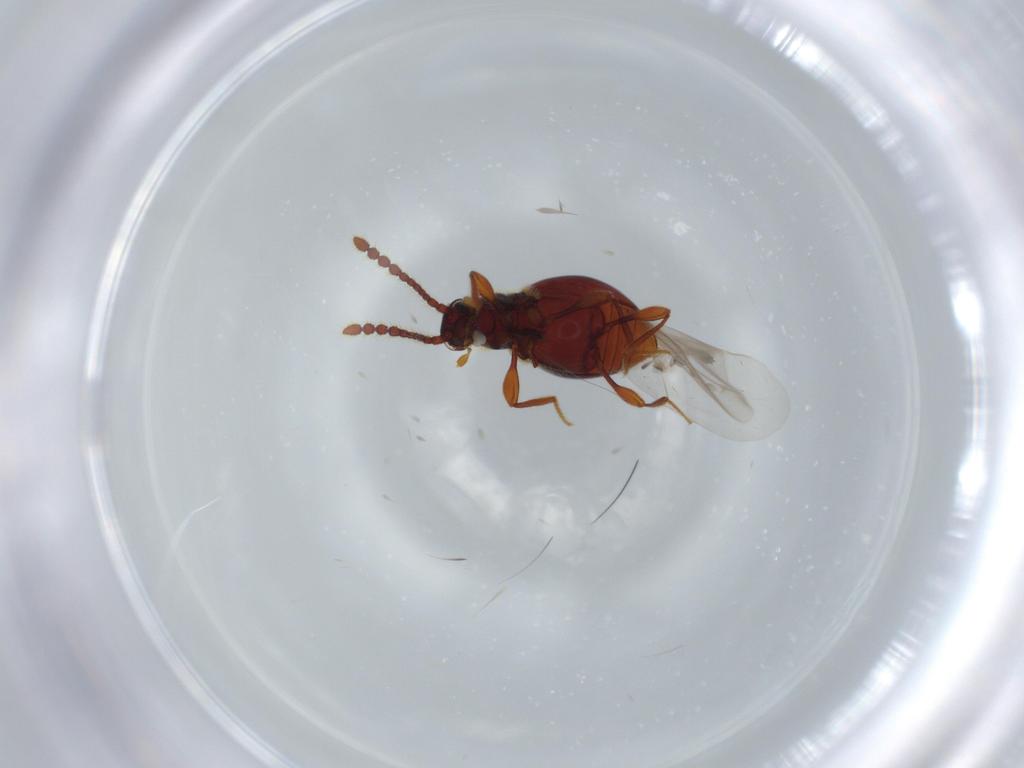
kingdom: Animalia
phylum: Arthropoda
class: Insecta
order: Coleoptera
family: Staphylinidae
